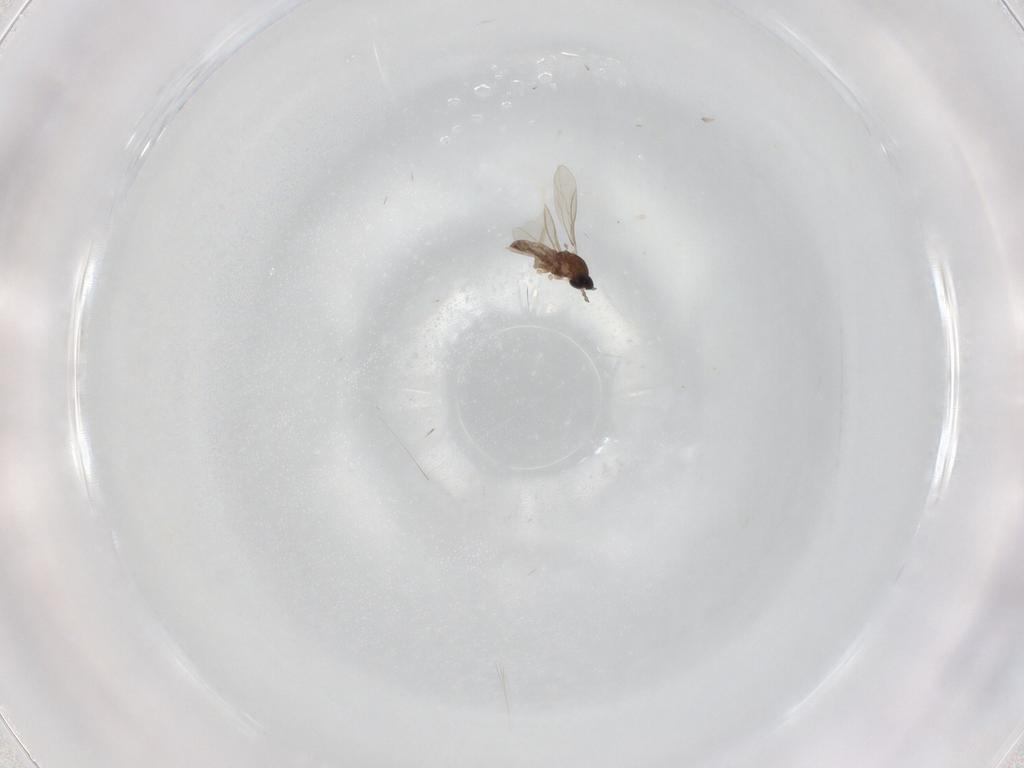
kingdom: Animalia
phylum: Arthropoda
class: Insecta
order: Diptera
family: Cecidomyiidae
